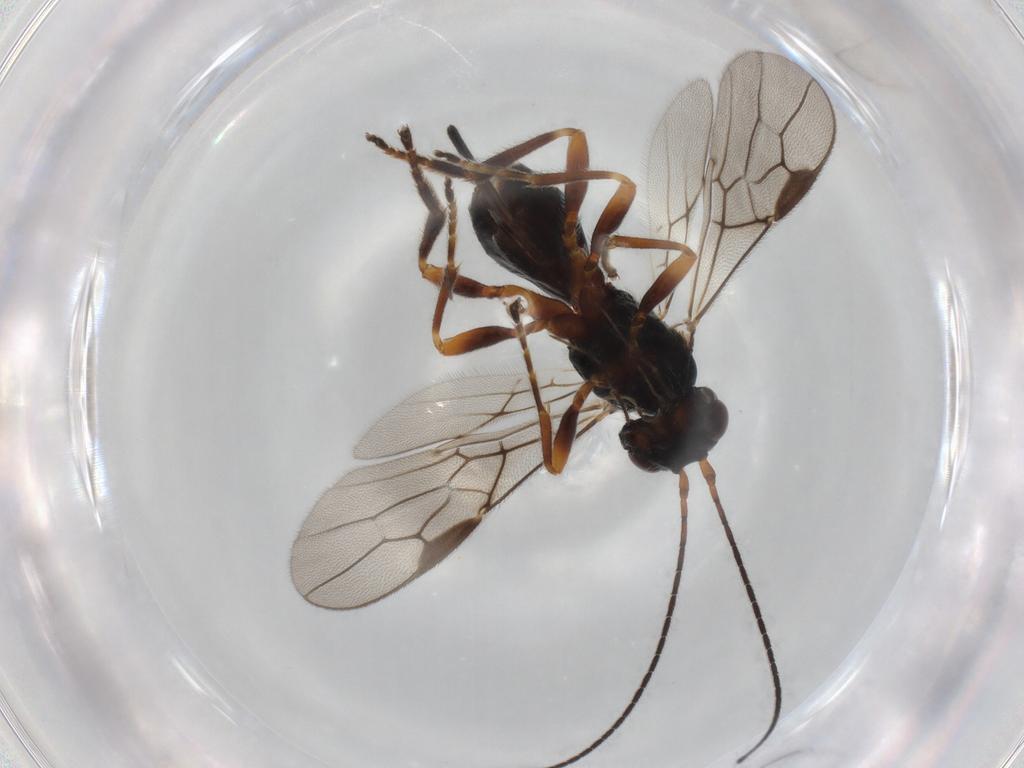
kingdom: Animalia
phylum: Arthropoda
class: Insecta
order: Hymenoptera
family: Braconidae
